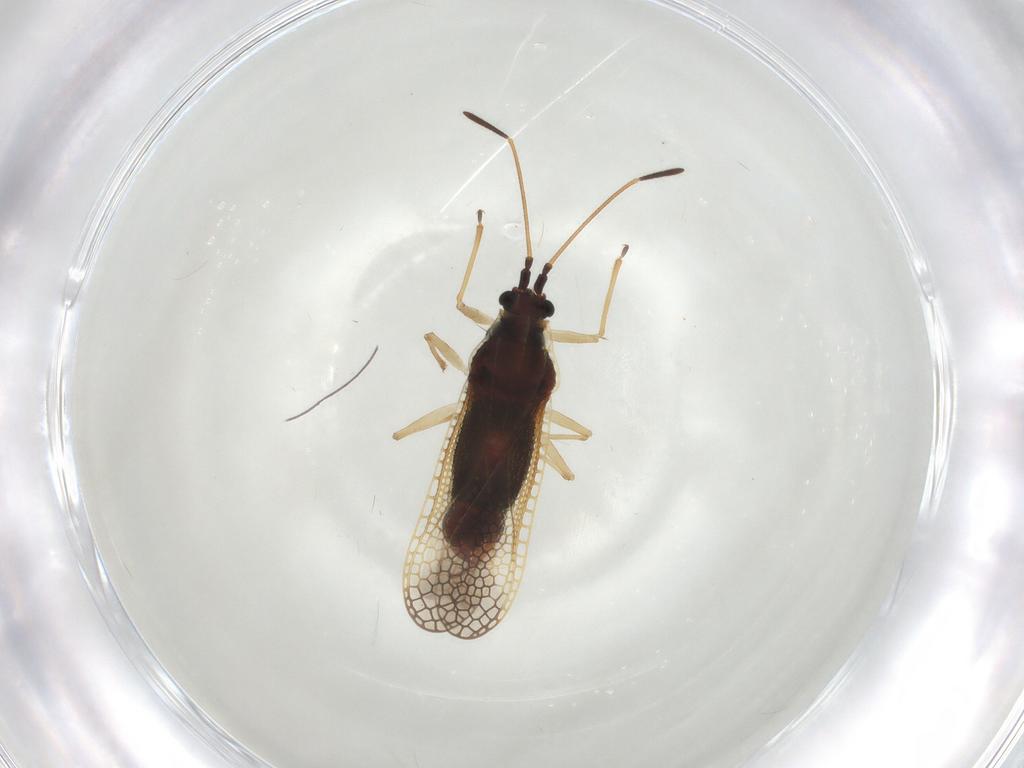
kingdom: Animalia
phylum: Arthropoda
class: Insecta
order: Hemiptera
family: Tingidae
